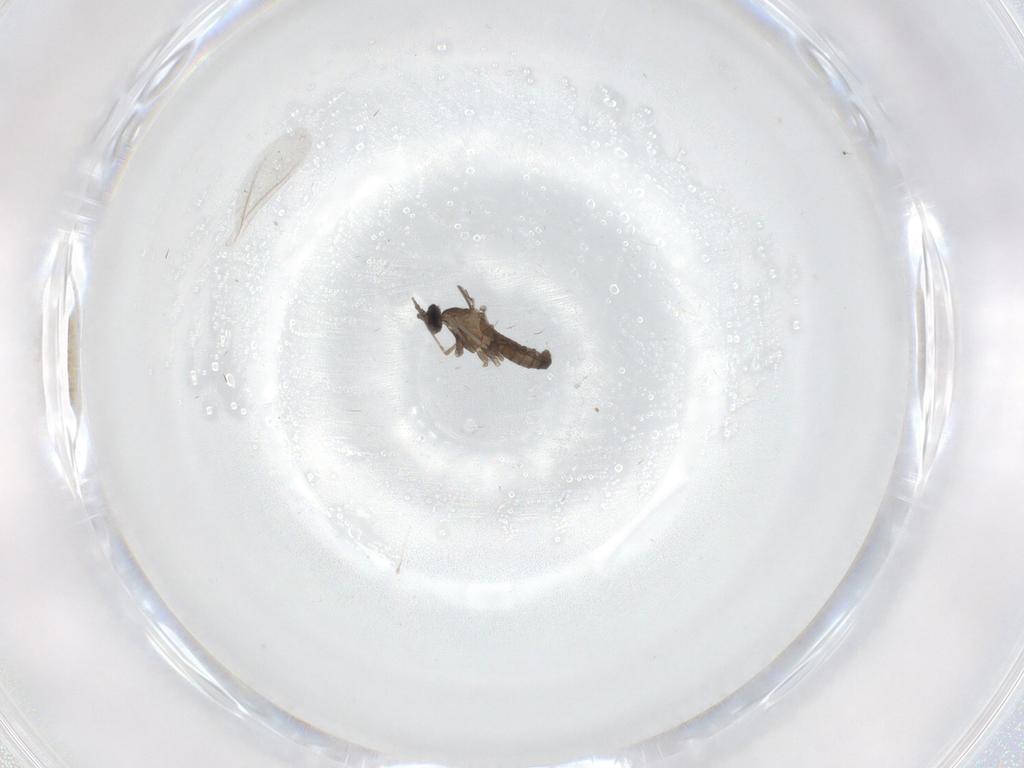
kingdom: Animalia
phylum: Arthropoda
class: Insecta
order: Diptera
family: Cecidomyiidae
